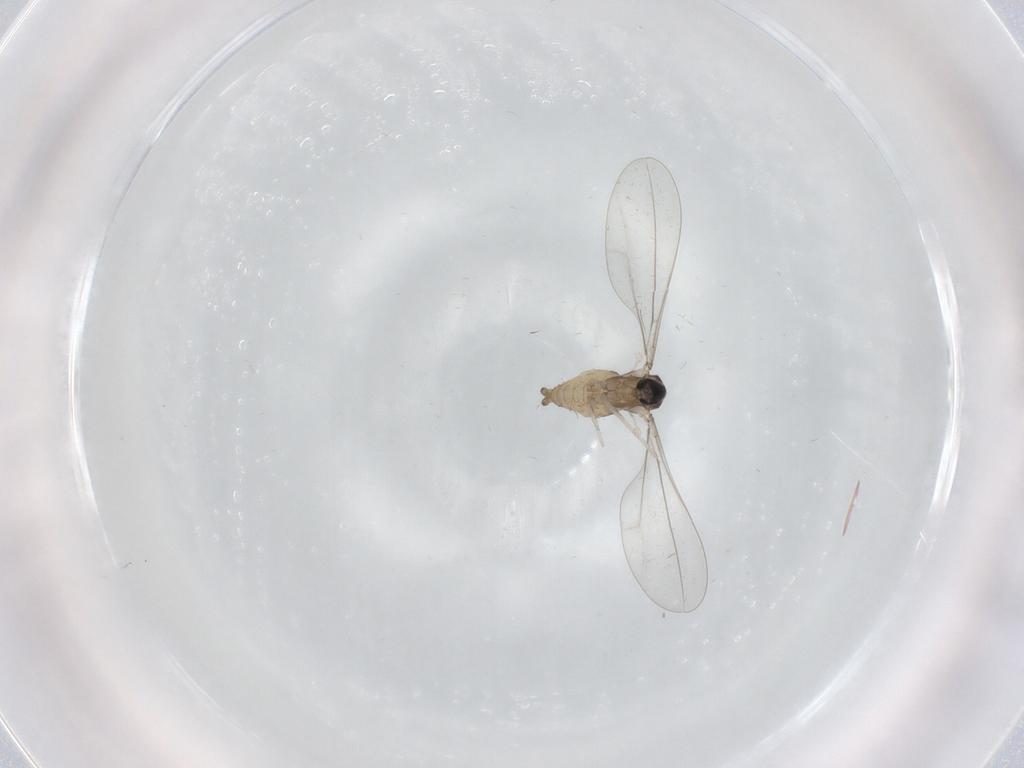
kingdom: Animalia
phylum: Arthropoda
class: Insecta
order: Diptera
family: Cecidomyiidae
